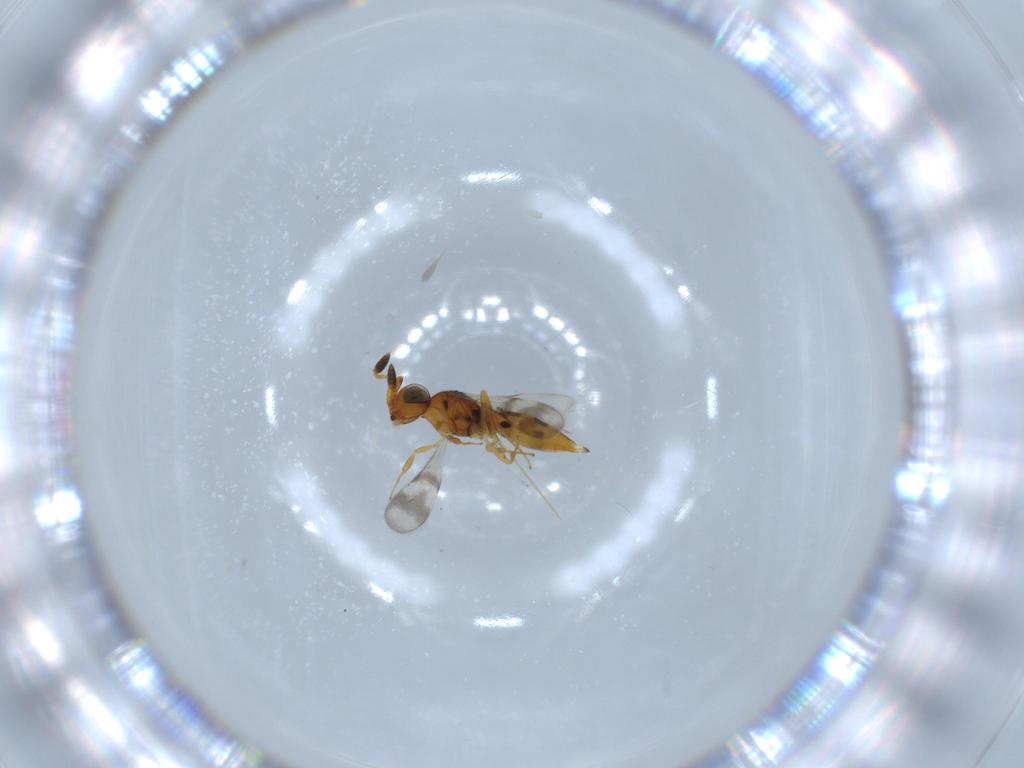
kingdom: Animalia
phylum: Arthropoda
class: Insecta
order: Hymenoptera
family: Scelionidae
